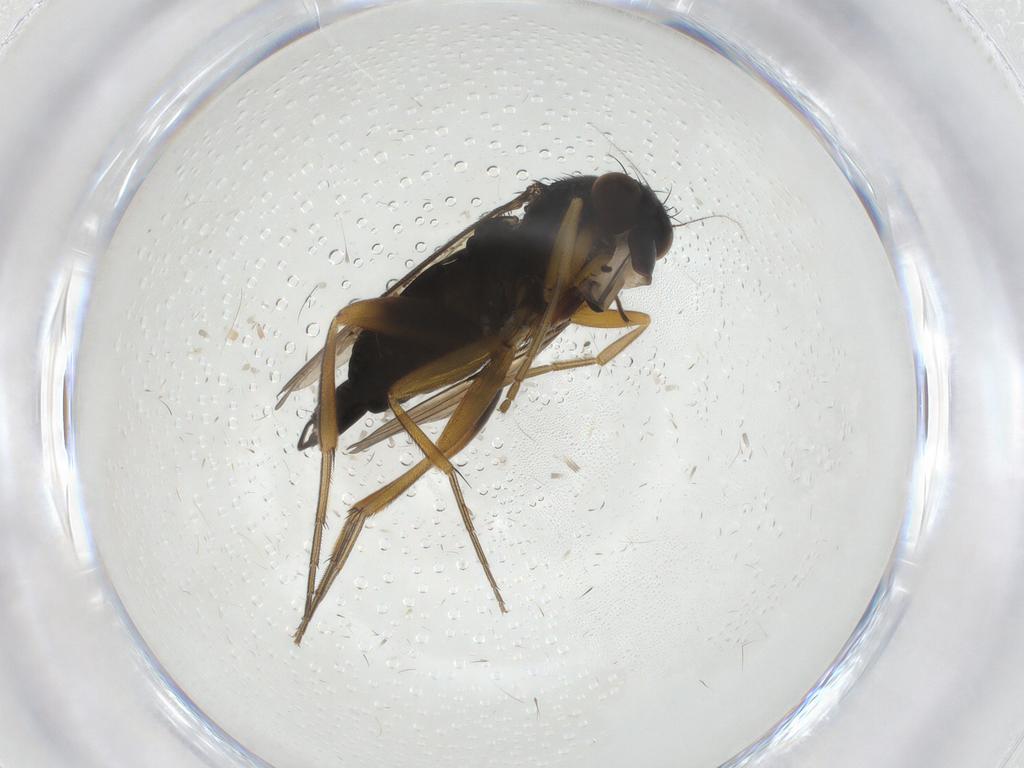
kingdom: Animalia
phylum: Arthropoda
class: Insecta
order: Diptera
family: Cecidomyiidae
